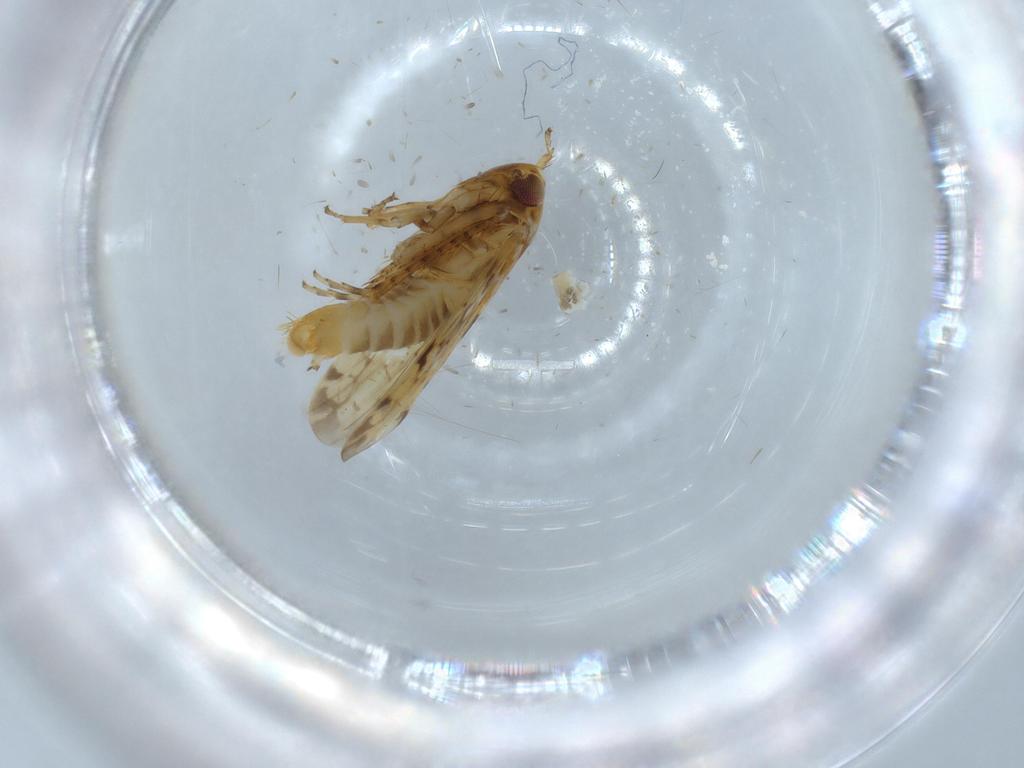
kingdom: Animalia
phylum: Arthropoda
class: Insecta
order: Hemiptera
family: Cicadellidae
